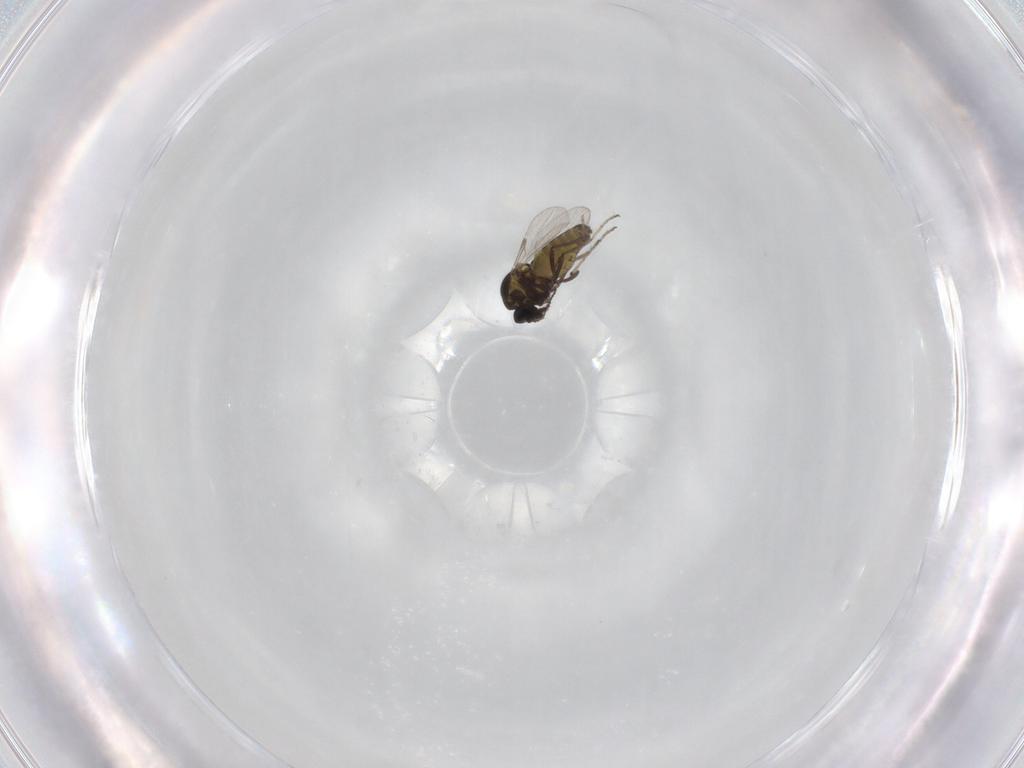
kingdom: Animalia
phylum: Arthropoda
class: Insecta
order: Diptera
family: Ceratopogonidae
